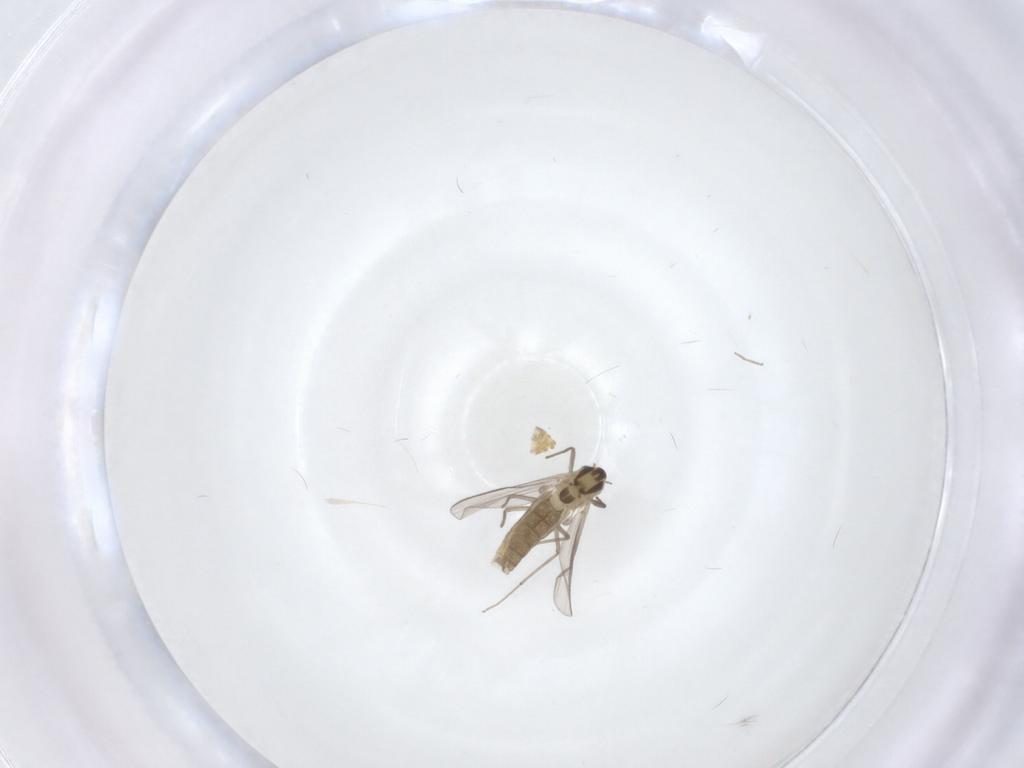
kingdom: Animalia
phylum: Arthropoda
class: Insecta
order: Diptera
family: Chironomidae
